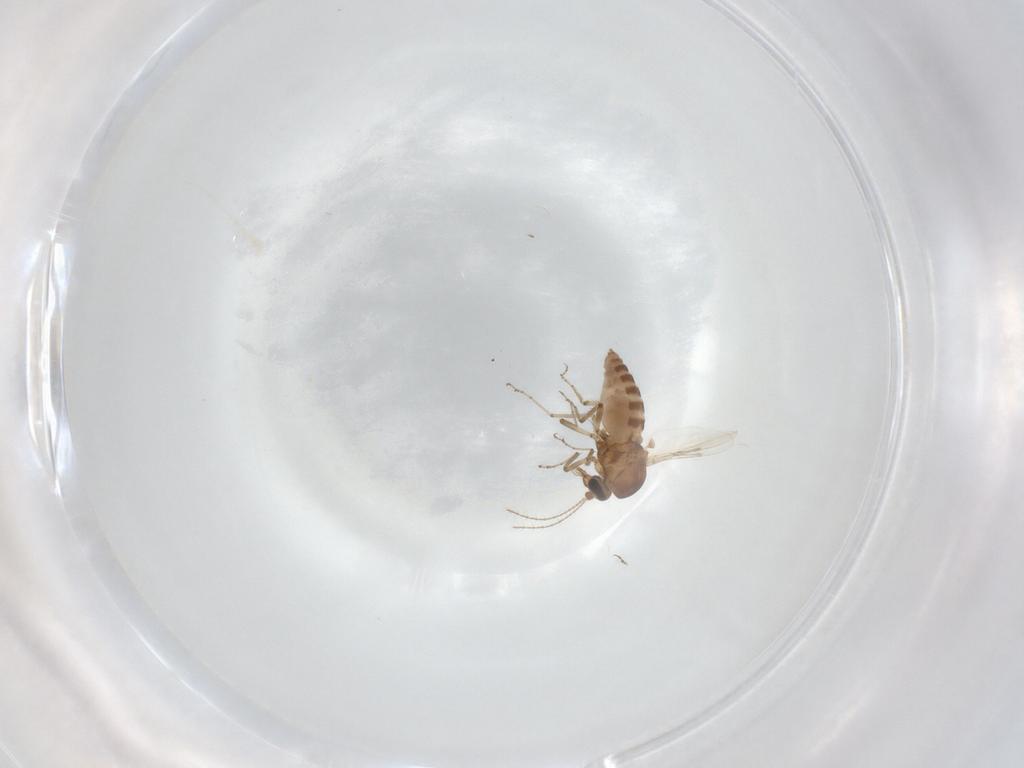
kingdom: Animalia
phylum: Arthropoda
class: Insecta
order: Diptera
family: Ceratopogonidae
